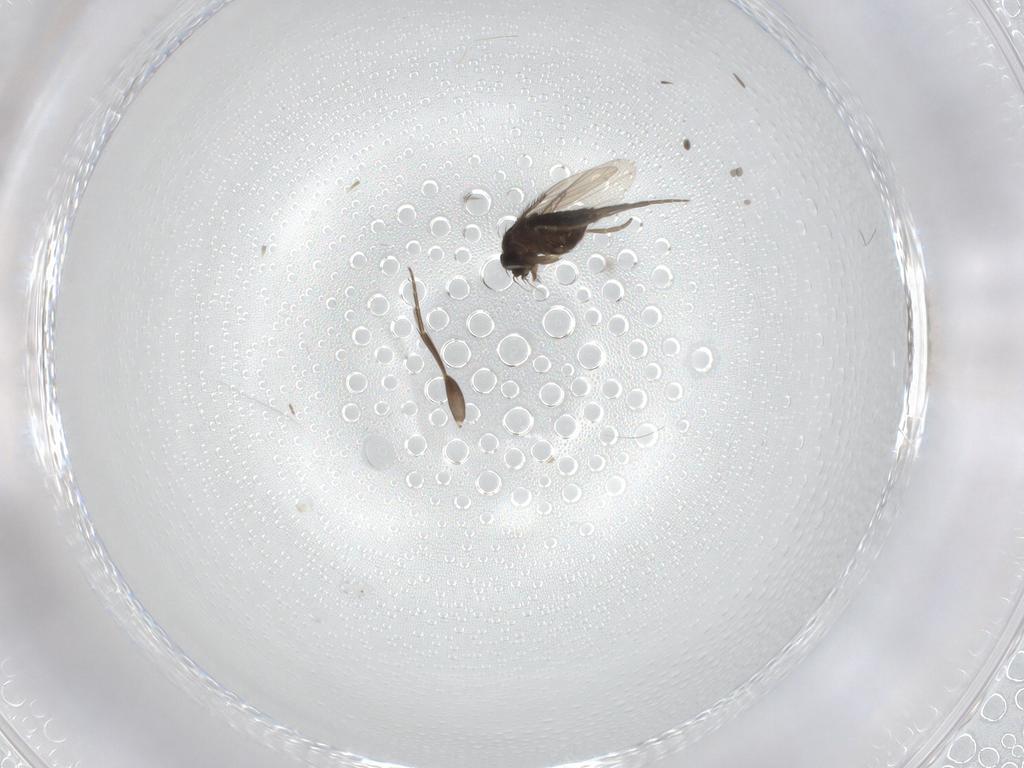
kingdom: Animalia
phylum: Arthropoda
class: Insecta
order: Diptera
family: Phoridae
